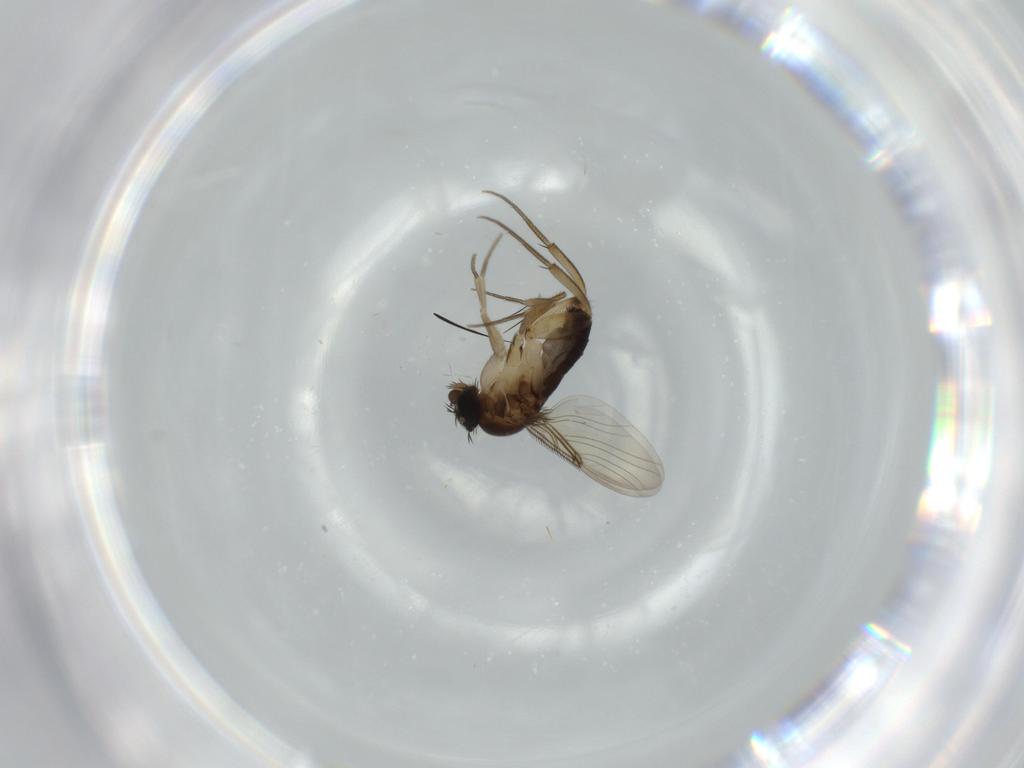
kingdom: Animalia
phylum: Arthropoda
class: Insecta
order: Diptera
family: Phoridae
